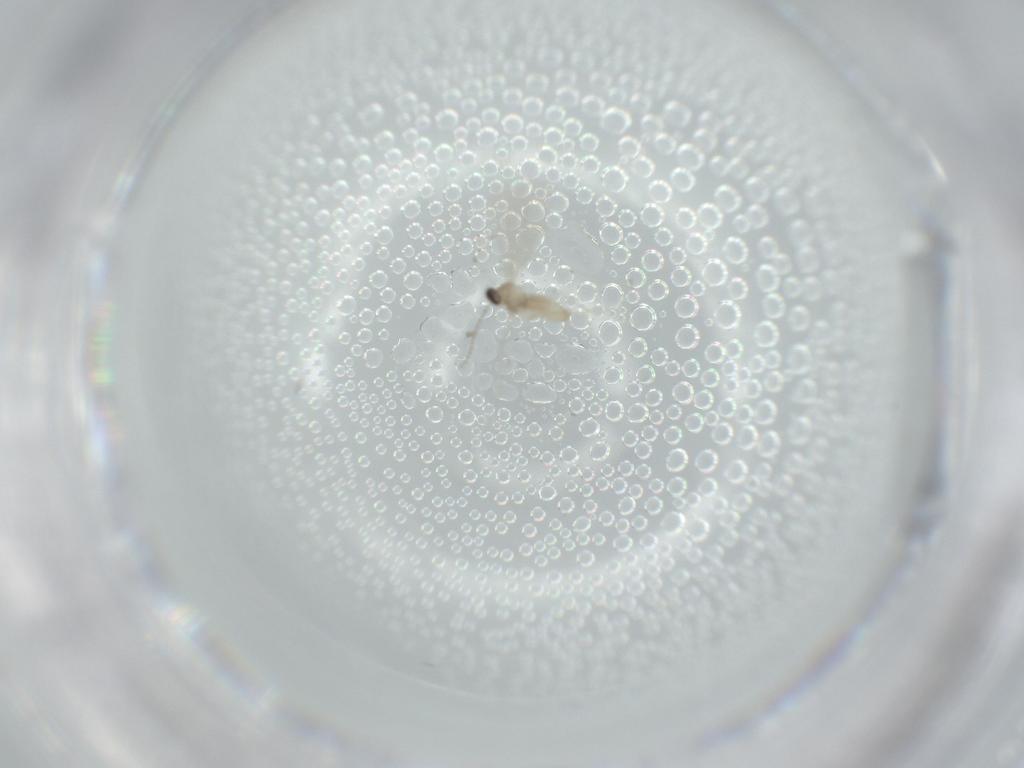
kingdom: Animalia
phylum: Arthropoda
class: Insecta
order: Diptera
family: Cecidomyiidae
